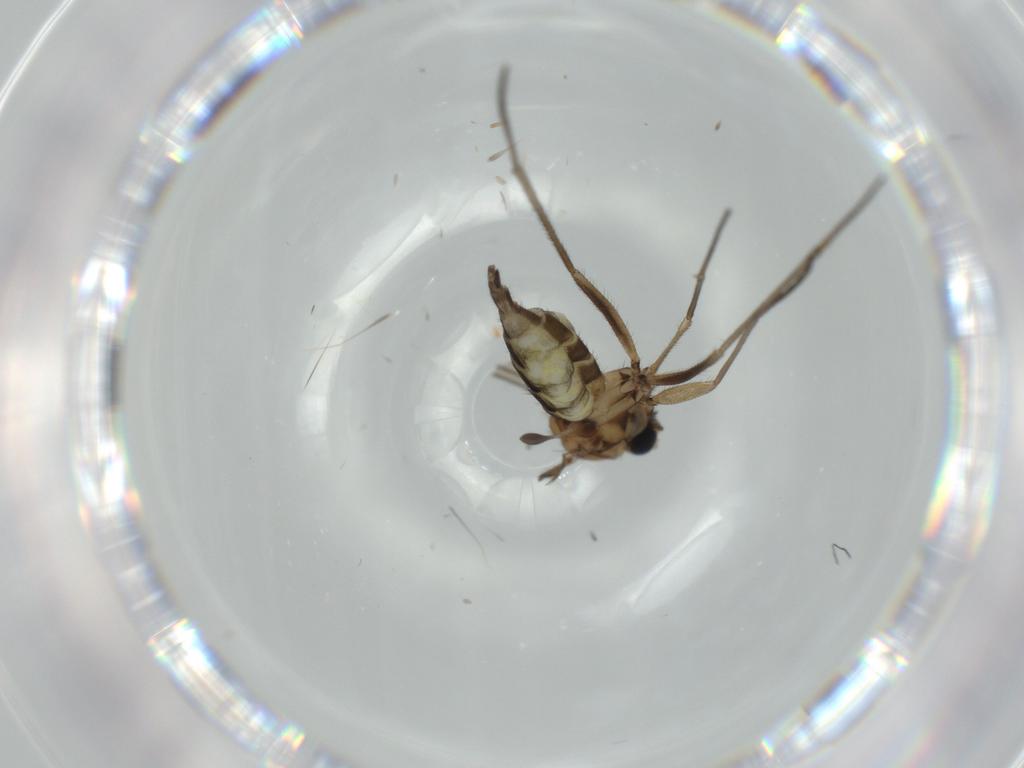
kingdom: Animalia
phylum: Arthropoda
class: Insecta
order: Diptera
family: Sciaridae
